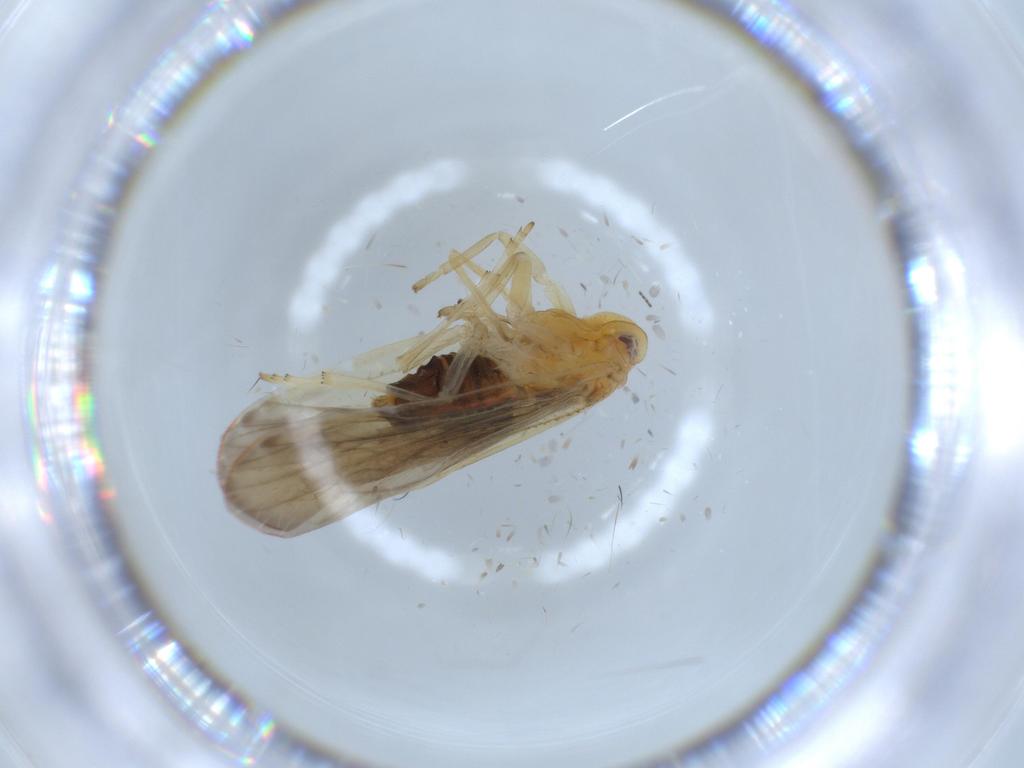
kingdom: Animalia
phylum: Arthropoda
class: Insecta
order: Hemiptera
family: Derbidae
